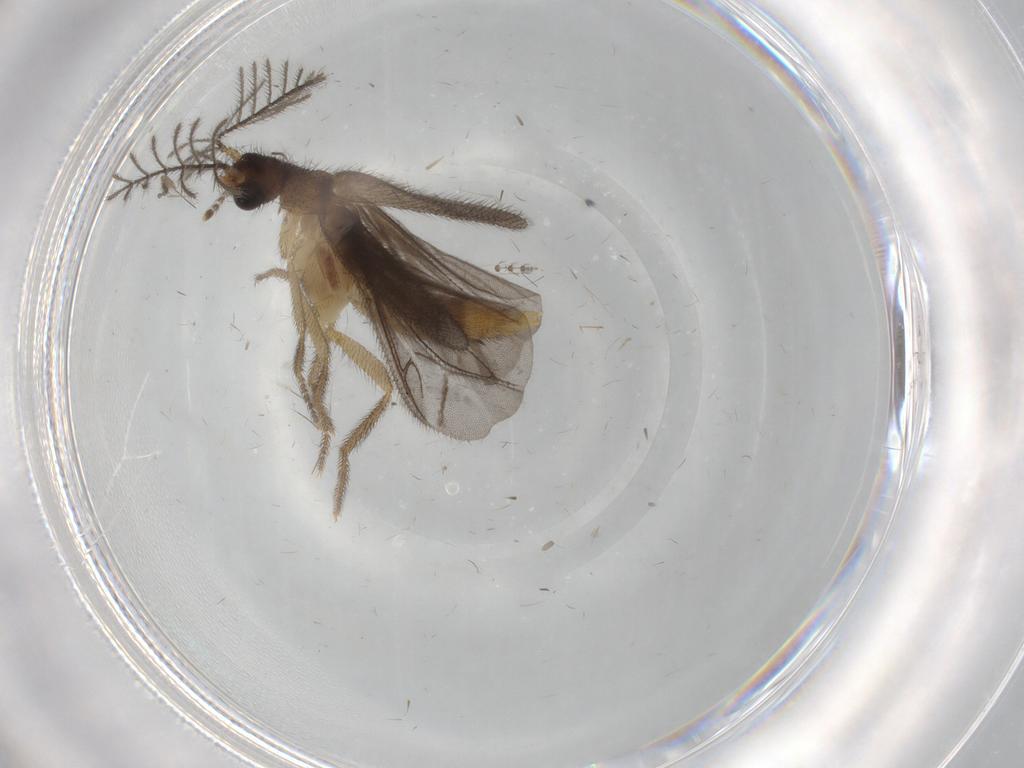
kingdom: Animalia
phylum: Arthropoda
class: Insecta
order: Coleoptera
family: Phengodidae
